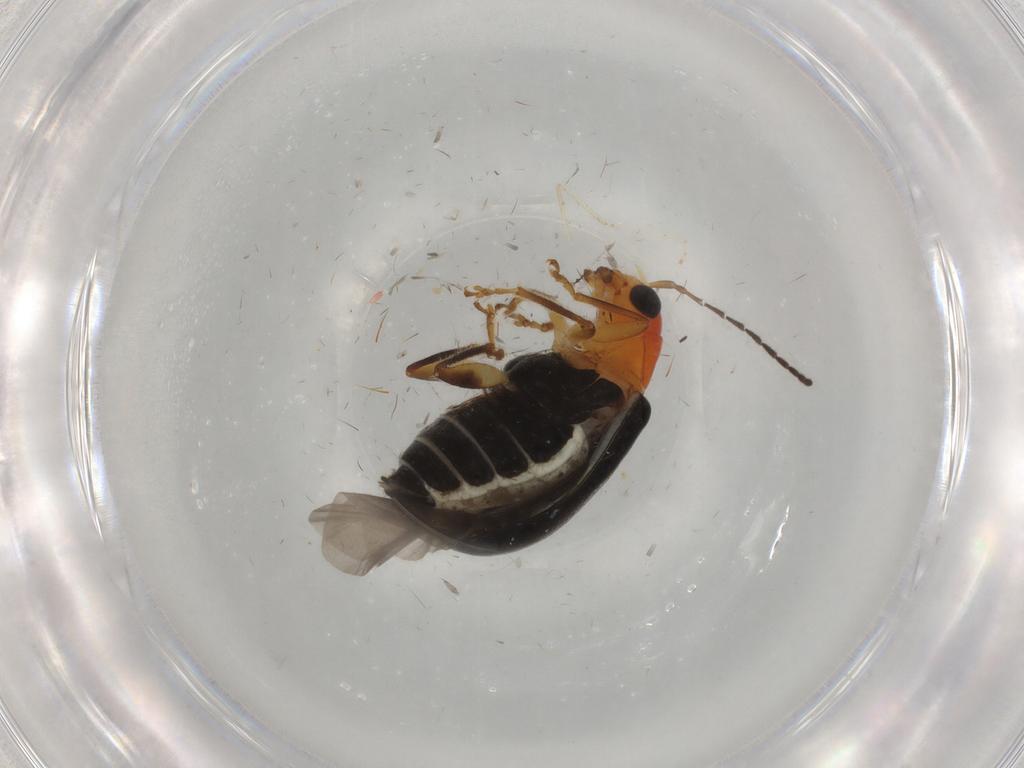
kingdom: Animalia
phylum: Arthropoda
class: Insecta
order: Coleoptera
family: Chrysomelidae
